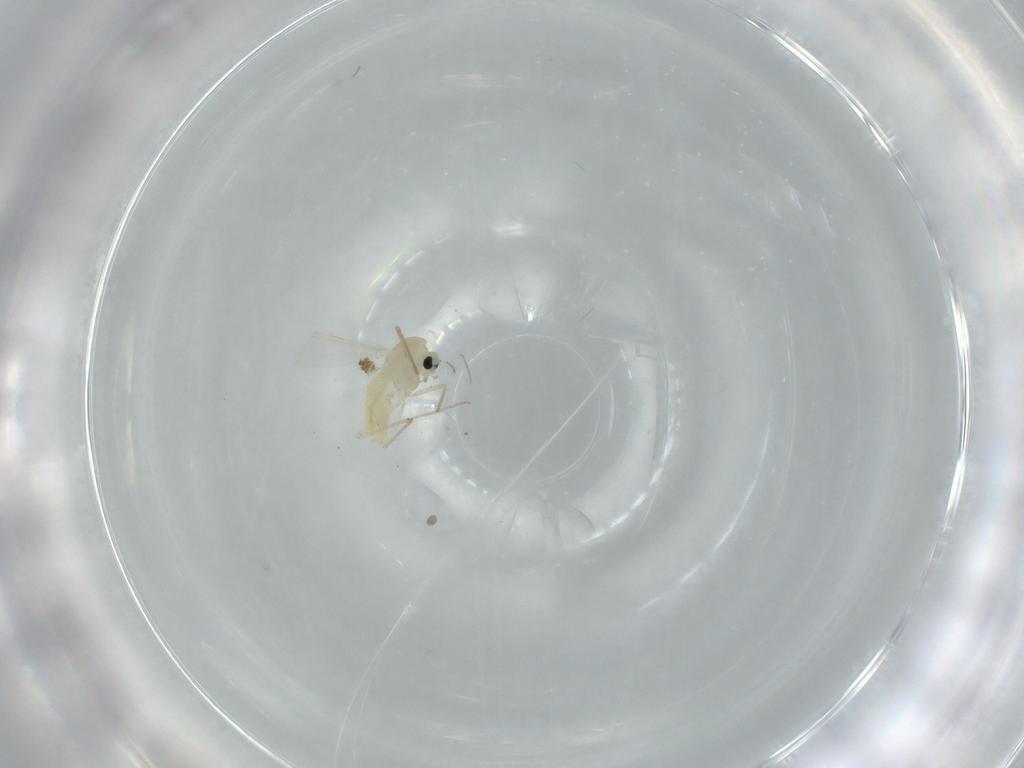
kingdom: Animalia
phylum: Arthropoda
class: Insecta
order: Diptera
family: Chironomidae
